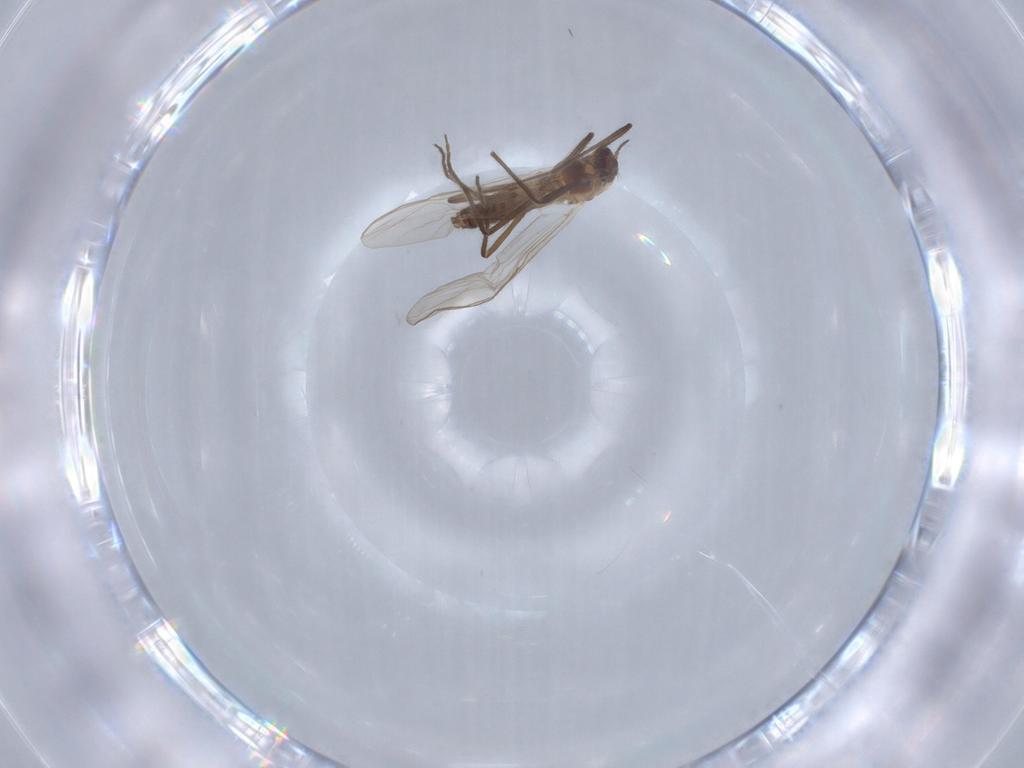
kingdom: Animalia
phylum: Arthropoda
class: Insecta
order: Diptera
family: Chironomidae
